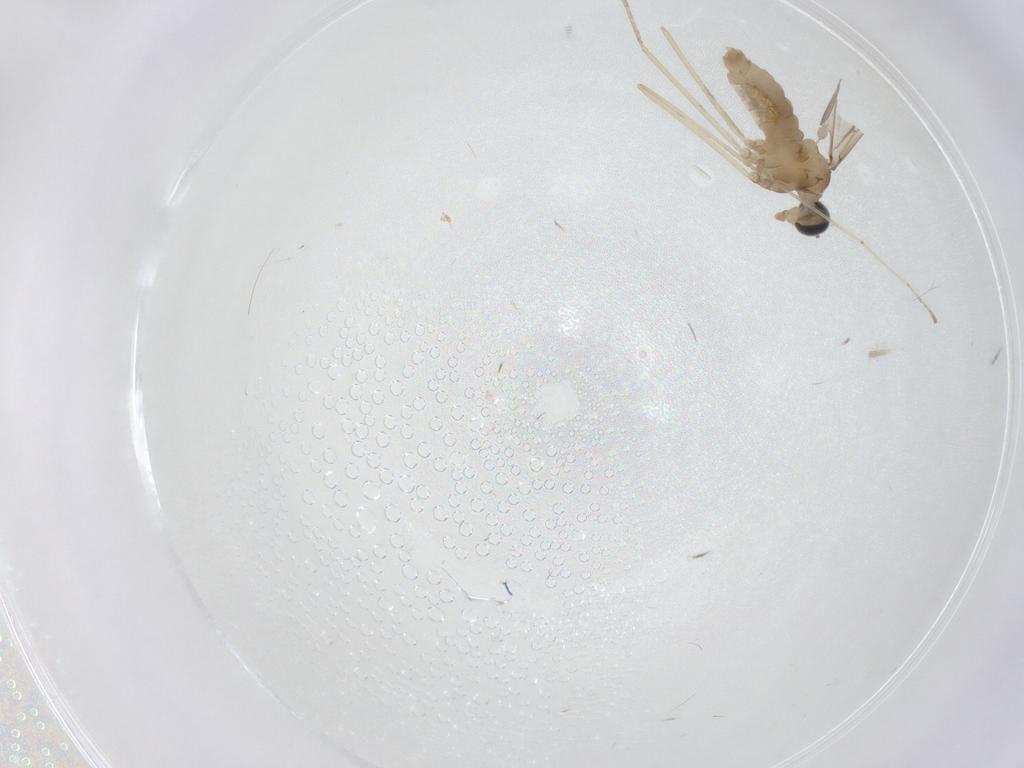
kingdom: Animalia
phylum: Arthropoda
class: Insecta
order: Diptera
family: Cecidomyiidae
